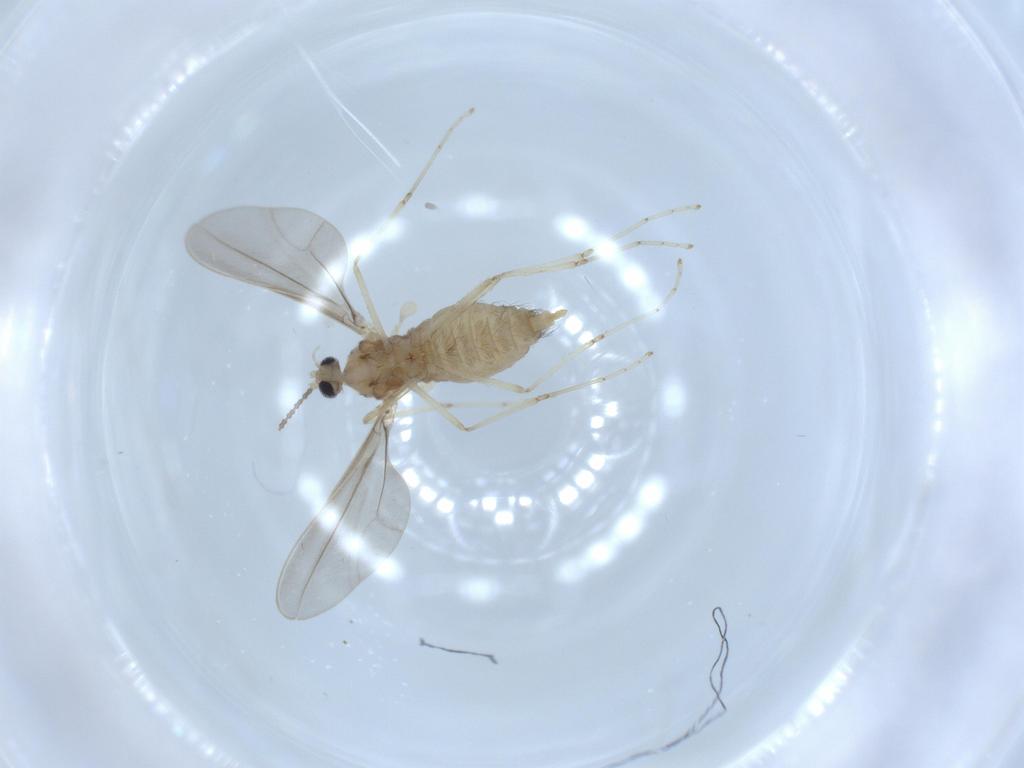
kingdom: Animalia
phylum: Arthropoda
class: Insecta
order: Diptera
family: Cecidomyiidae
